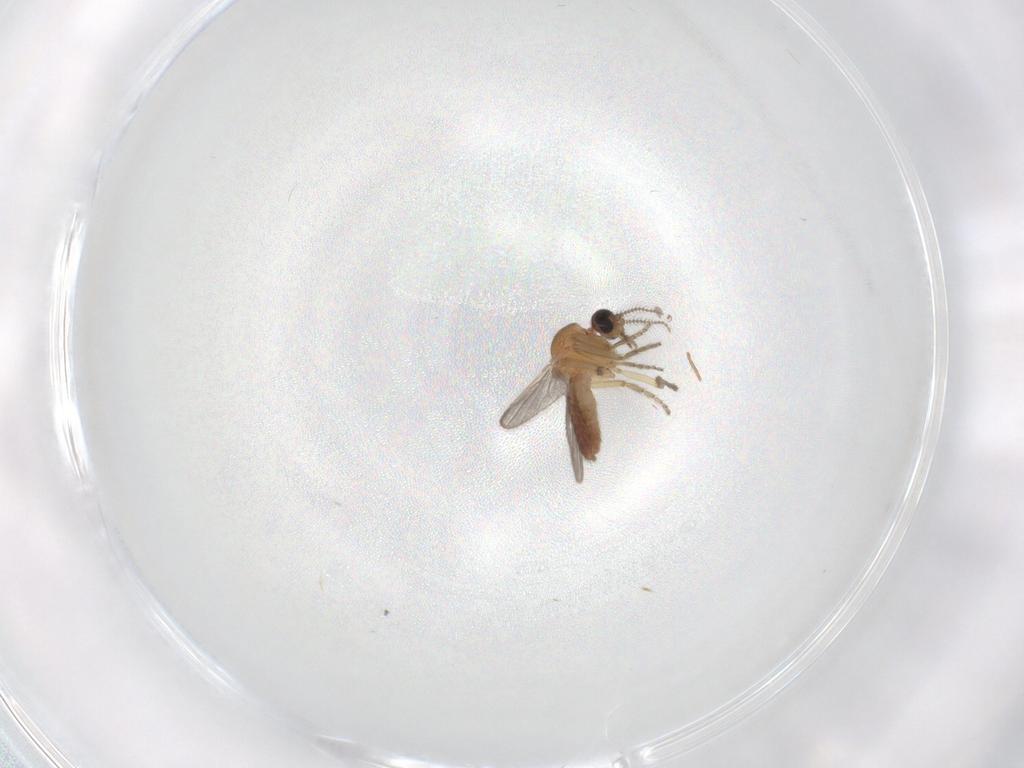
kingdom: Animalia
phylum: Arthropoda
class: Insecta
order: Diptera
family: Ceratopogonidae
